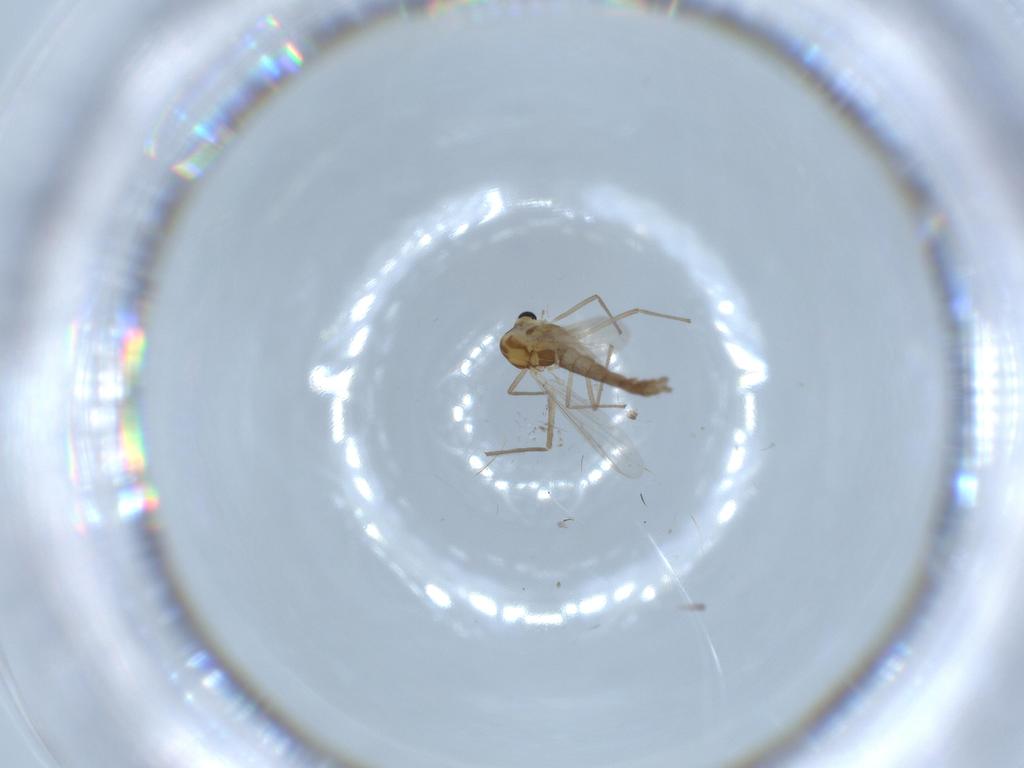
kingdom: Animalia
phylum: Arthropoda
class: Insecta
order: Diptera
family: Chironomidae
